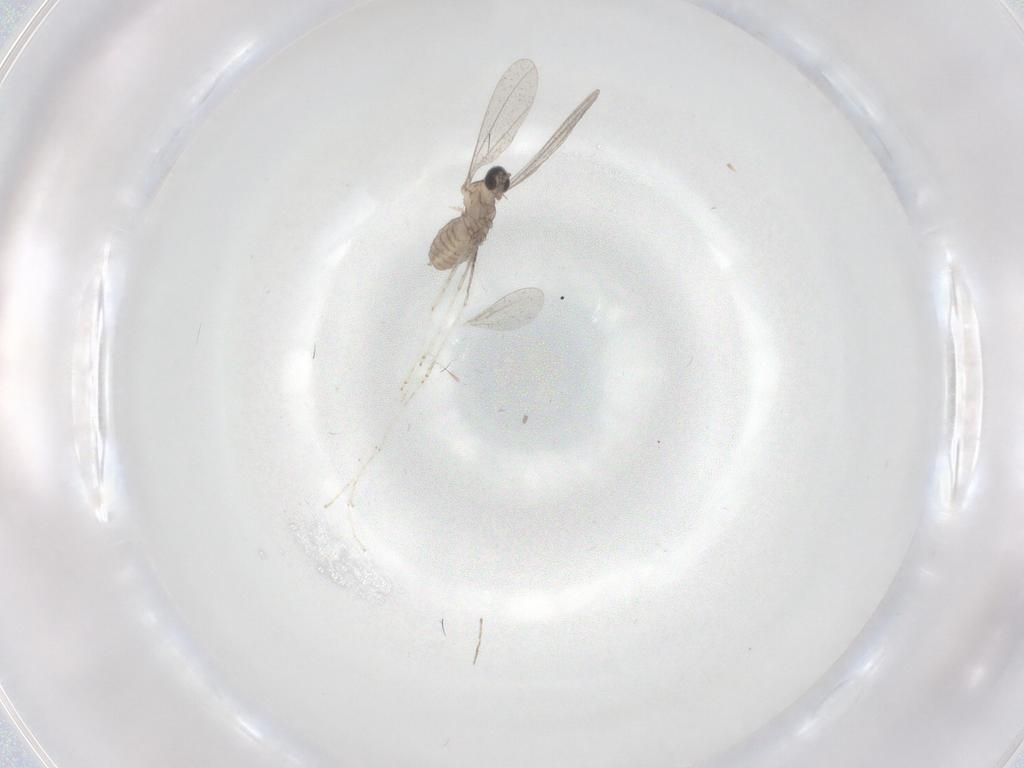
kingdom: Animalia
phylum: Arthropoda
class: Insecta
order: Diptera
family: Cecidomyiidae
